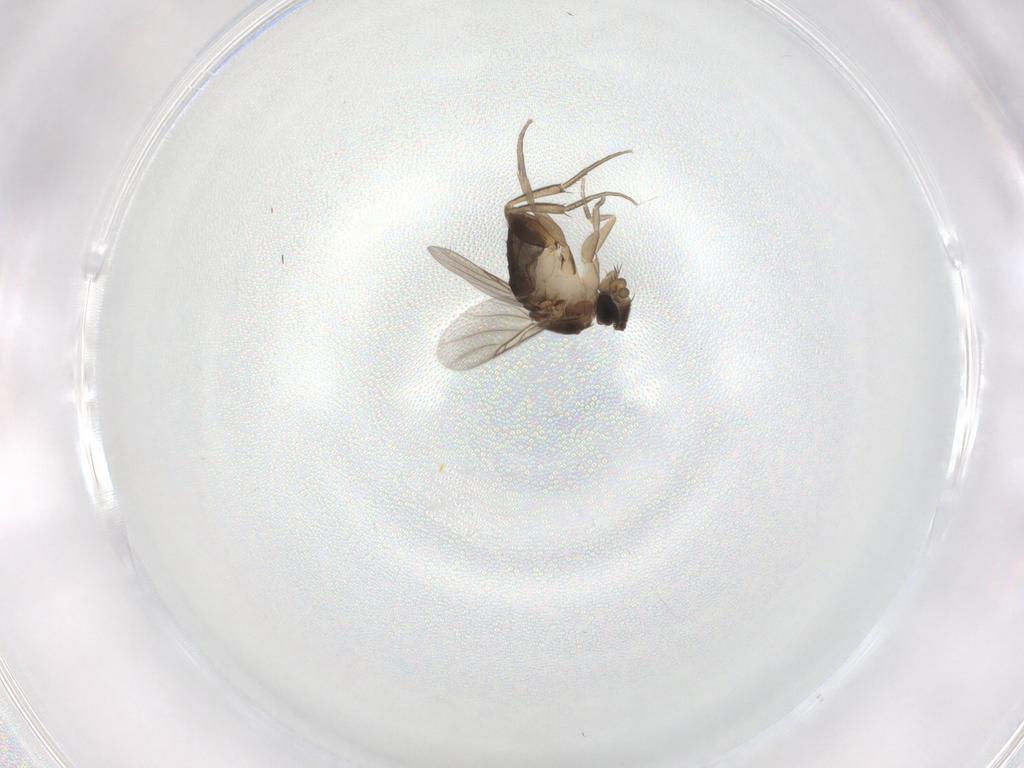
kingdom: Animalia
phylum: Arthropoda
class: Insecta
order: Diptera
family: Phoridae
